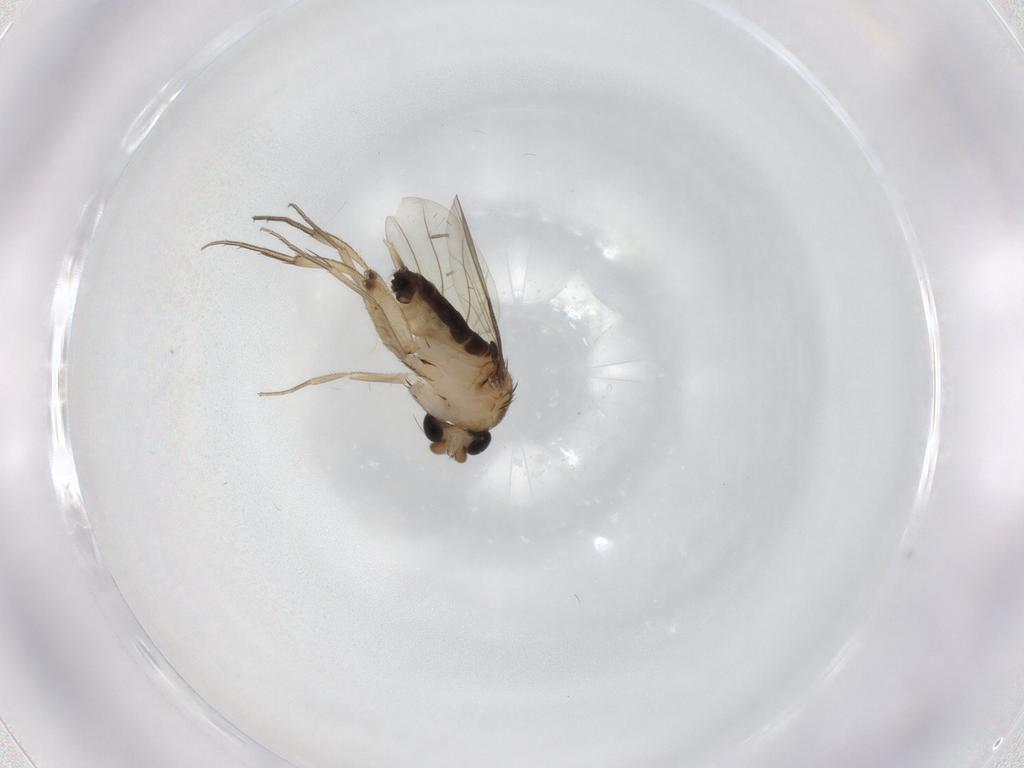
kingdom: Animalia
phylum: Arthropoda
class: Insecta
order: Diptera
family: Phoridae
